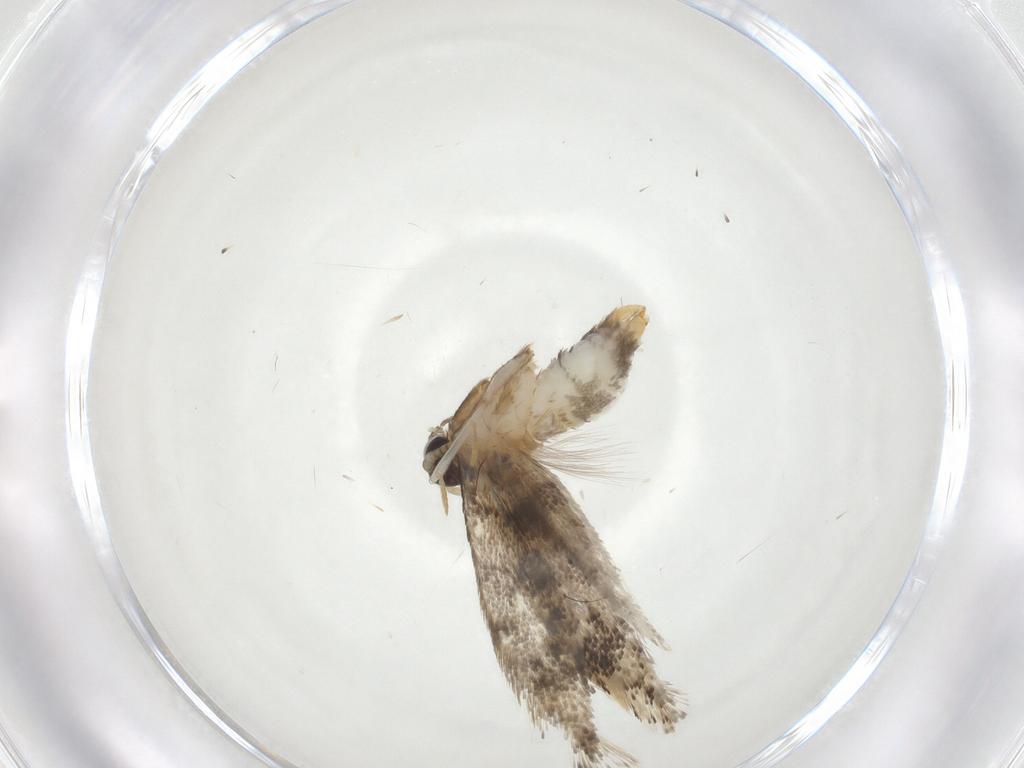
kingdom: Animalia
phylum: Arthropoda
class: Insecta
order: Lepidoptera
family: Tineidae
